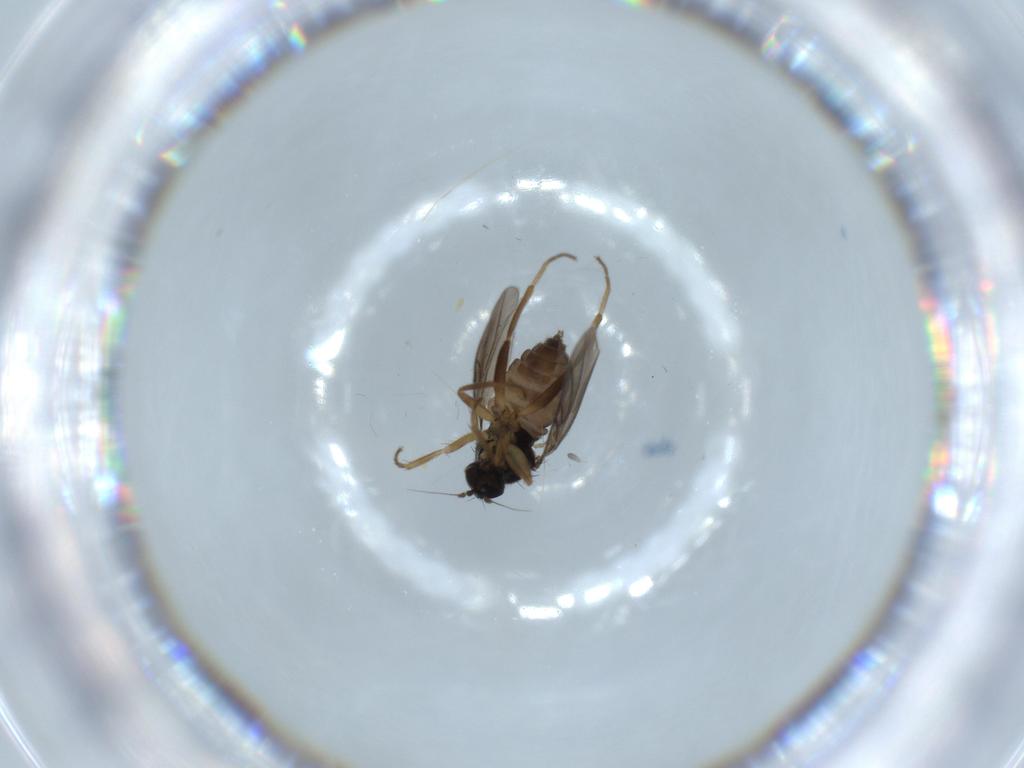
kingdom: Animalia
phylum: Arthropoda
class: Insecta
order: Diptera
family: Hybotidae
